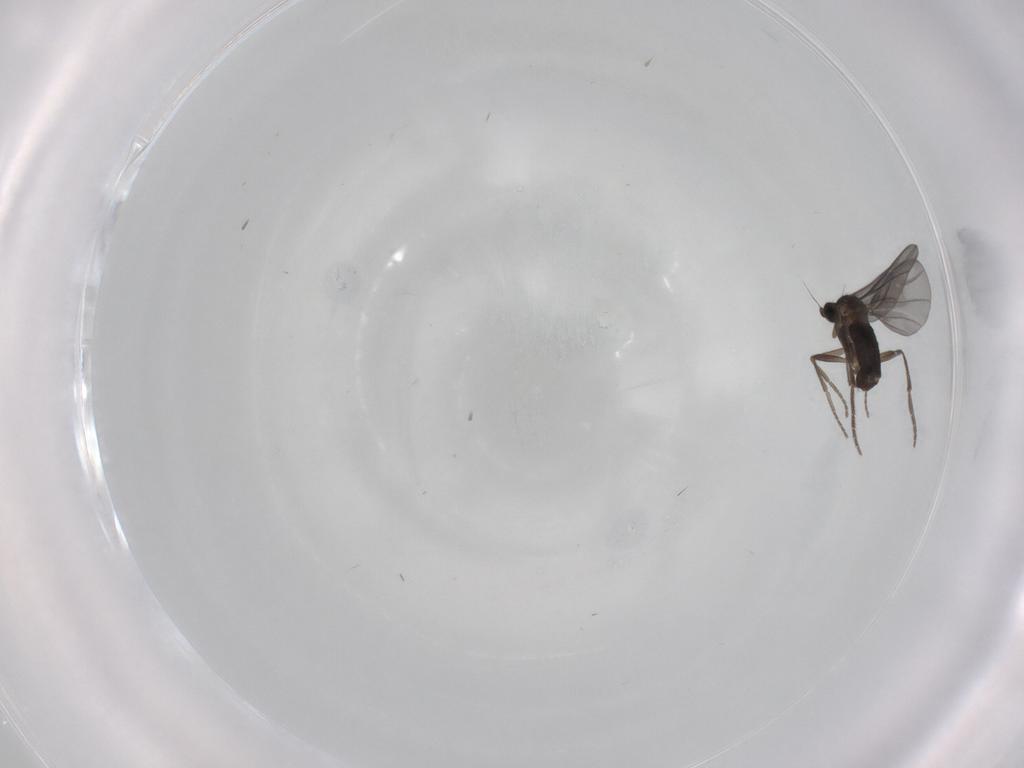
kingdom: Animalia
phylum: Arthropoda
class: Insecta
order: Diptera
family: Phoridae
